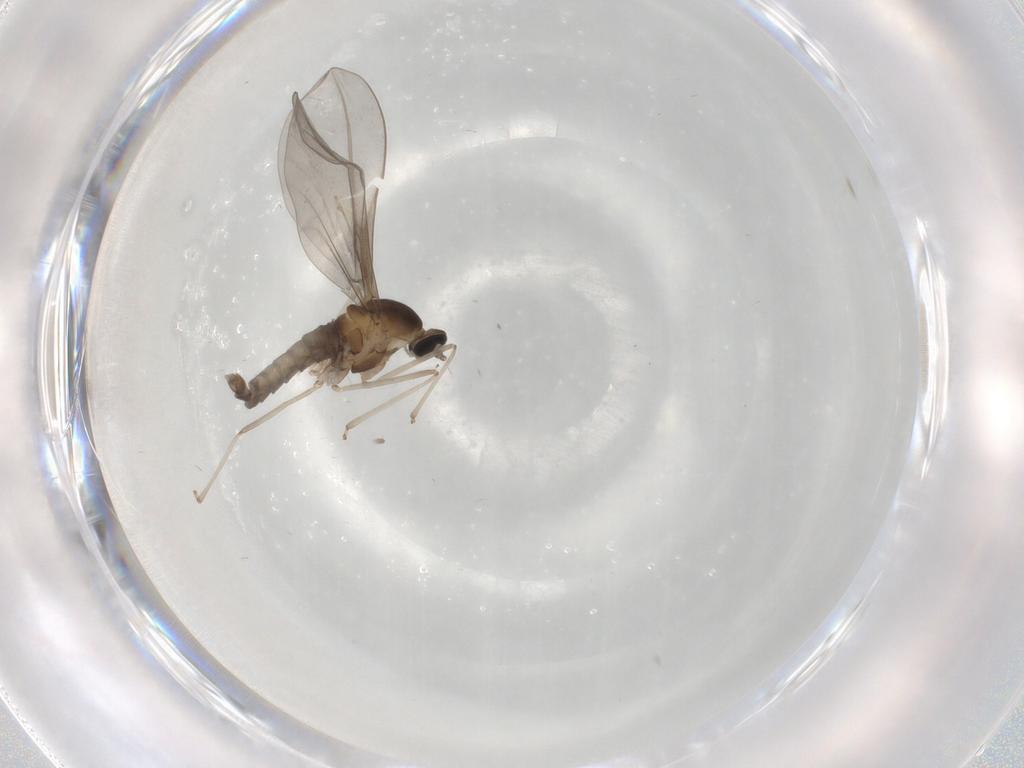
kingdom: Animalia
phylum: Arthropoda
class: Insecta
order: Diptera
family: Cecidomyiidae
